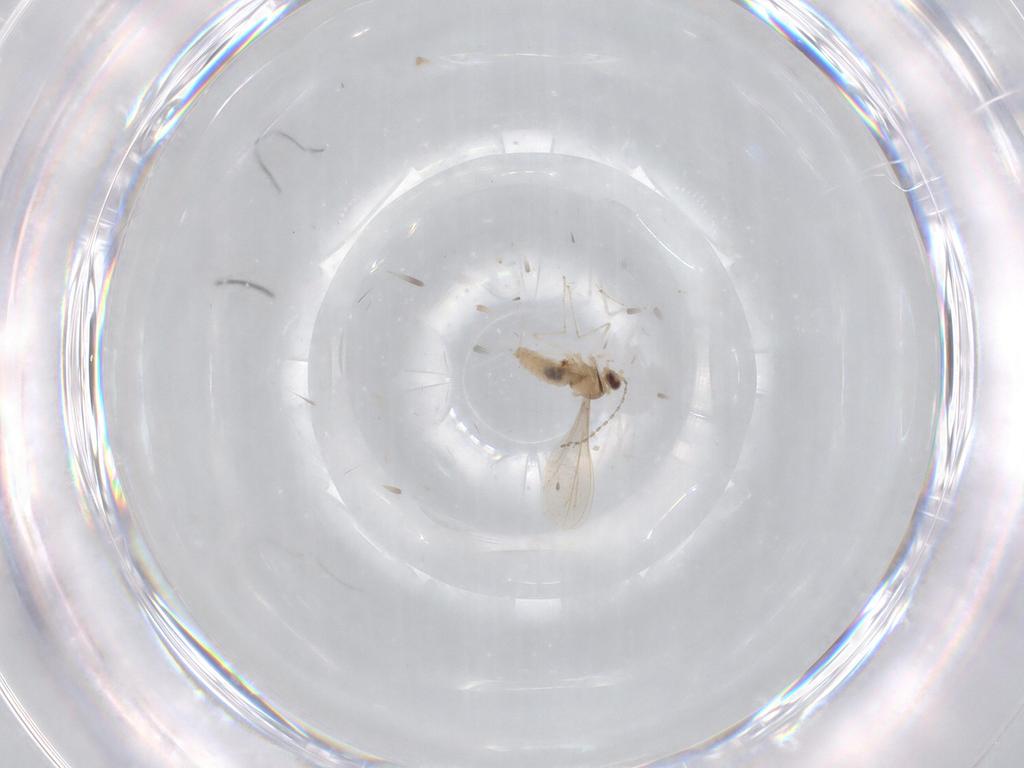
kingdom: Animalia
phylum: Arthropoda
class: Insecta
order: Diptera
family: Cecidomyiidae
